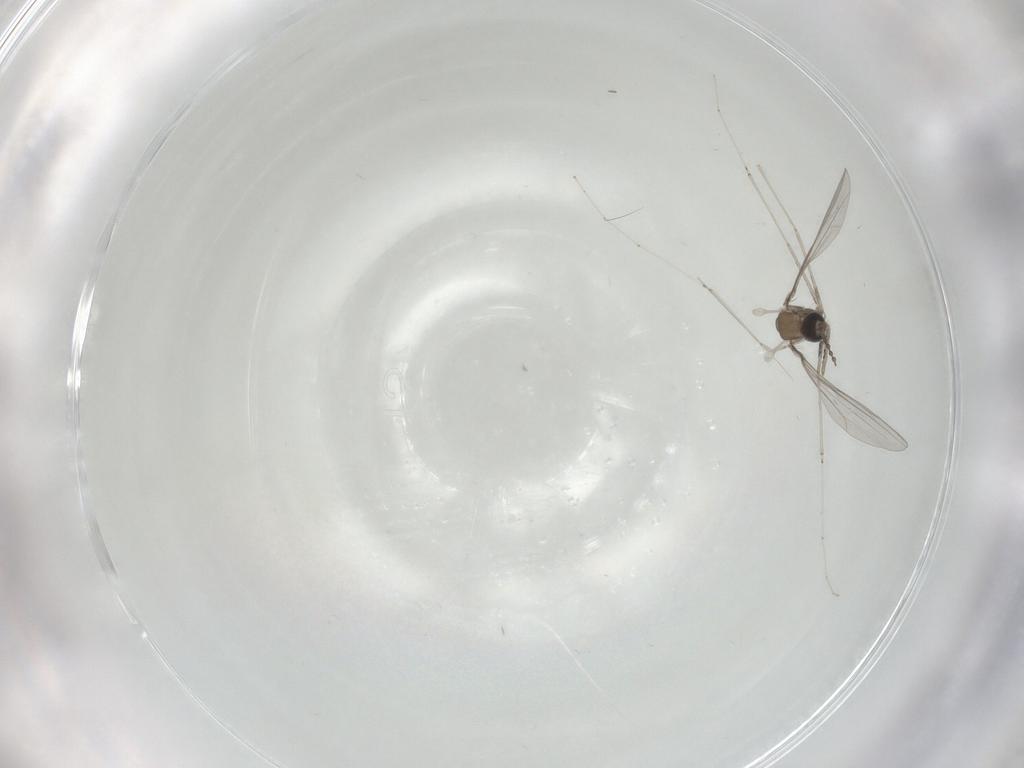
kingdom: Animalia
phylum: Arthropoda
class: Insecta
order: Diptera
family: Cecidomyiidae
